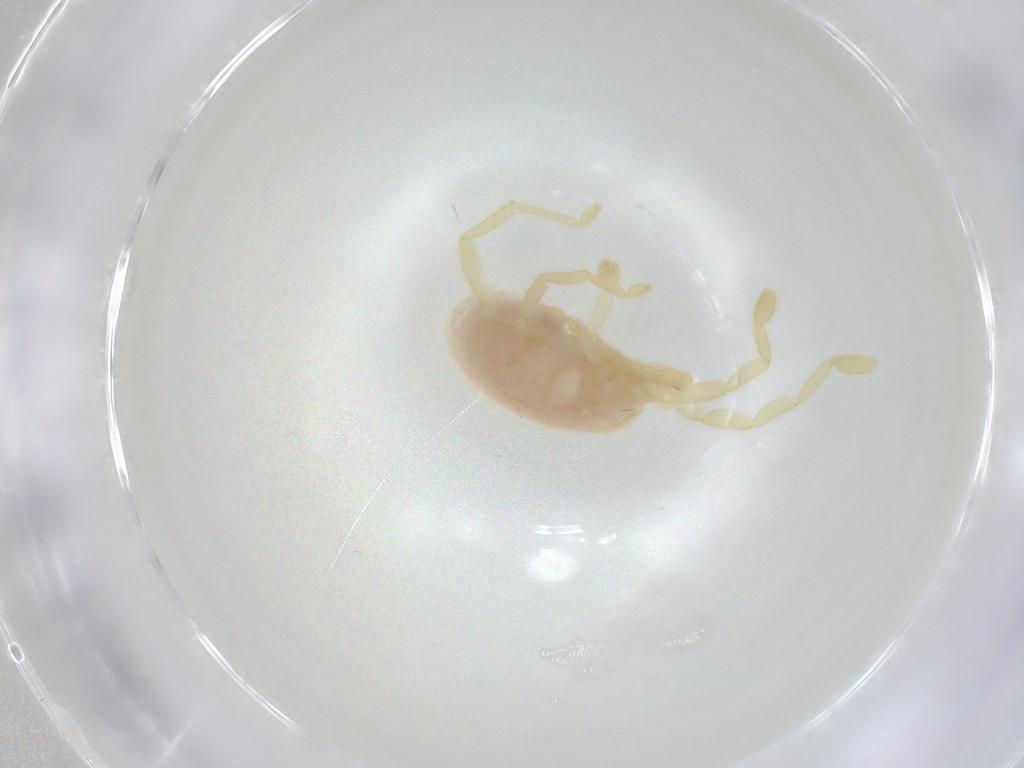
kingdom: Animalia
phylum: Arthropoda
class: Arachnida
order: Trombidiformes
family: Erythraeidae
